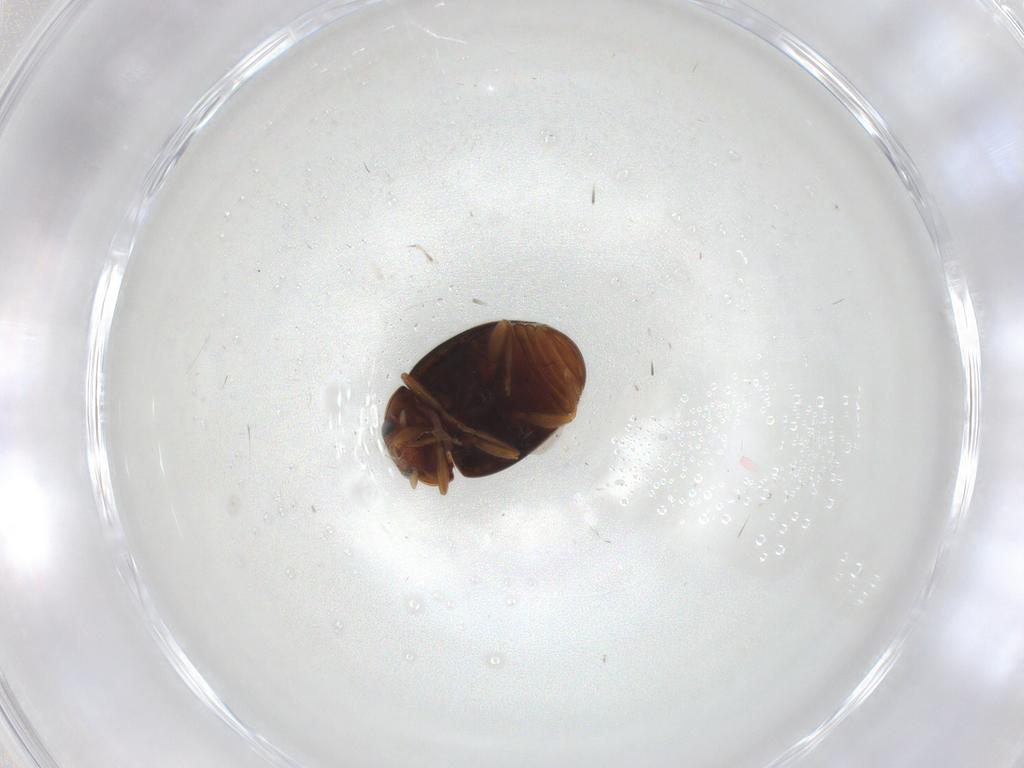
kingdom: Animalia
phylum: Arthropoda
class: Insecta
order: Coleoptera
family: Coccinellidae
